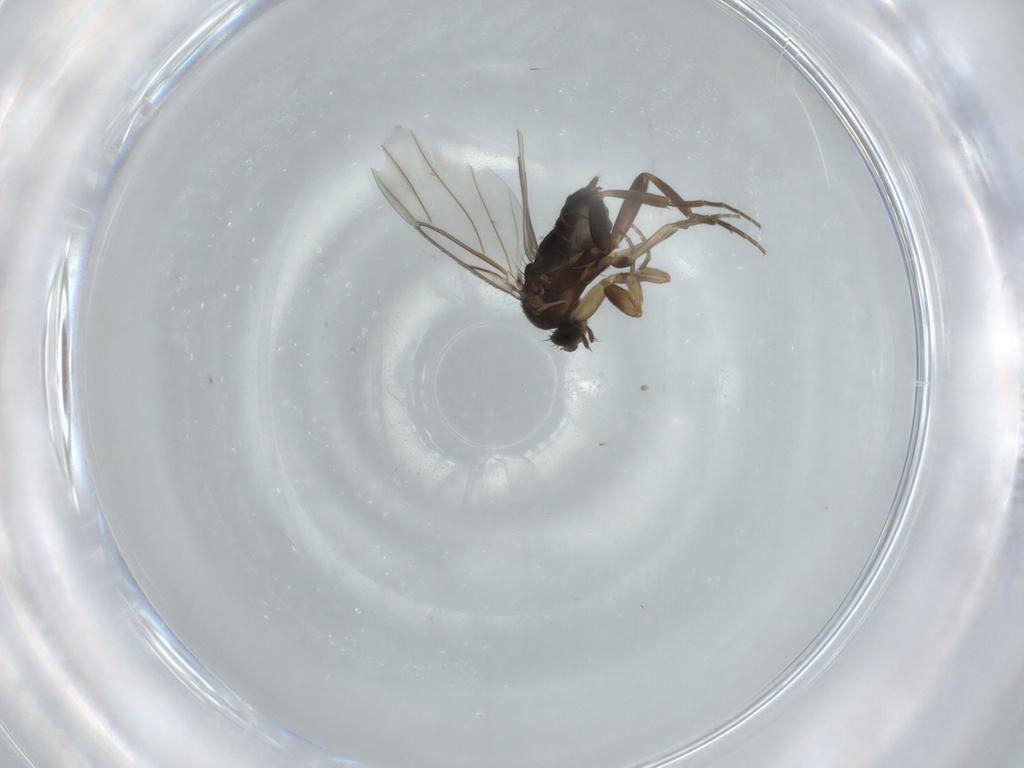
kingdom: Animalia
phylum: Arthropoda
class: Insecta
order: Diptera
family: Phoridae
